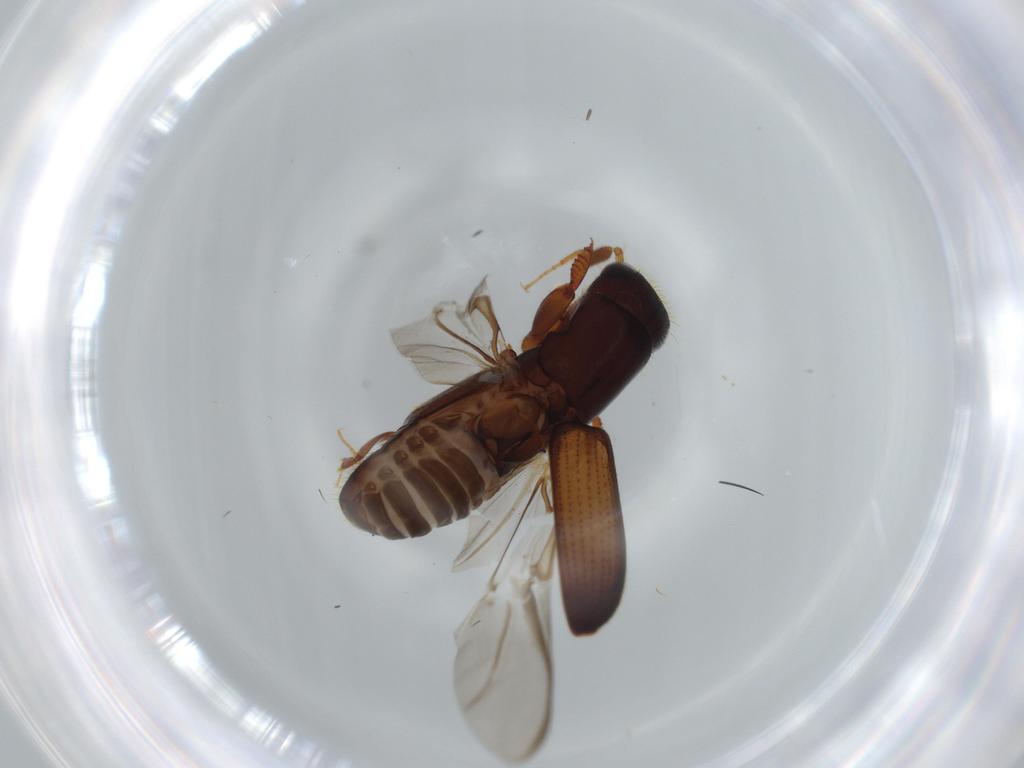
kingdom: Animalia
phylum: Arthropoda
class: Insecta
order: Coleoptera
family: Curculionidae
